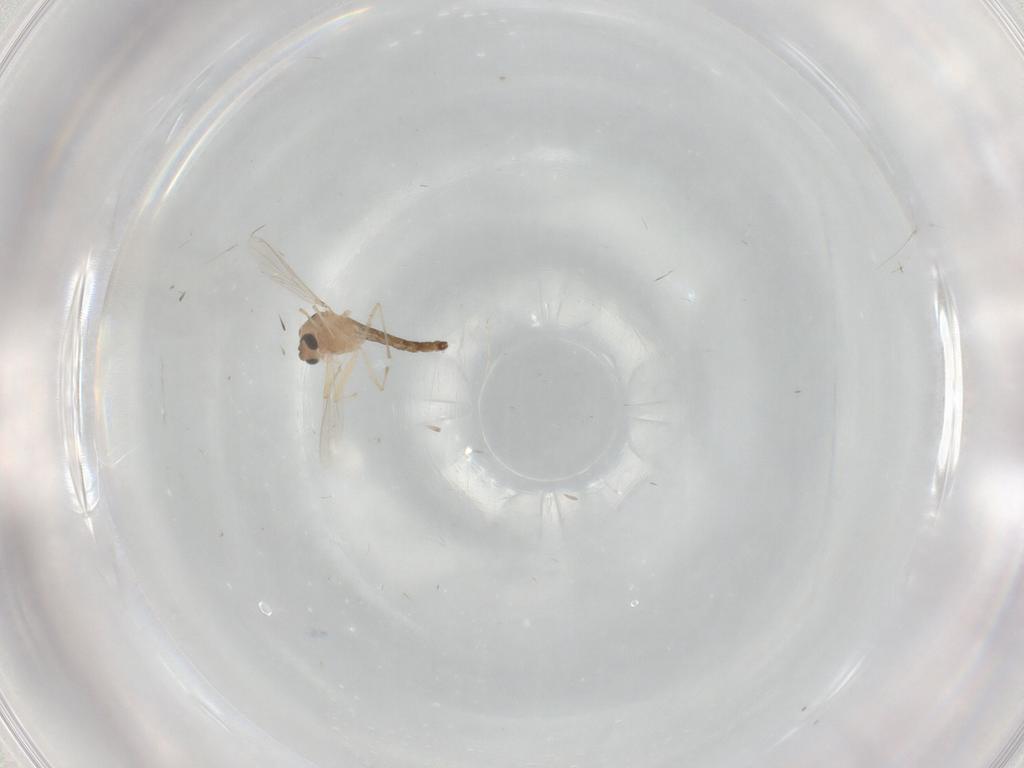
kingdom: Animalia
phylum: Arthropoda
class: Insecta
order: Diptera
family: Chironomidae
